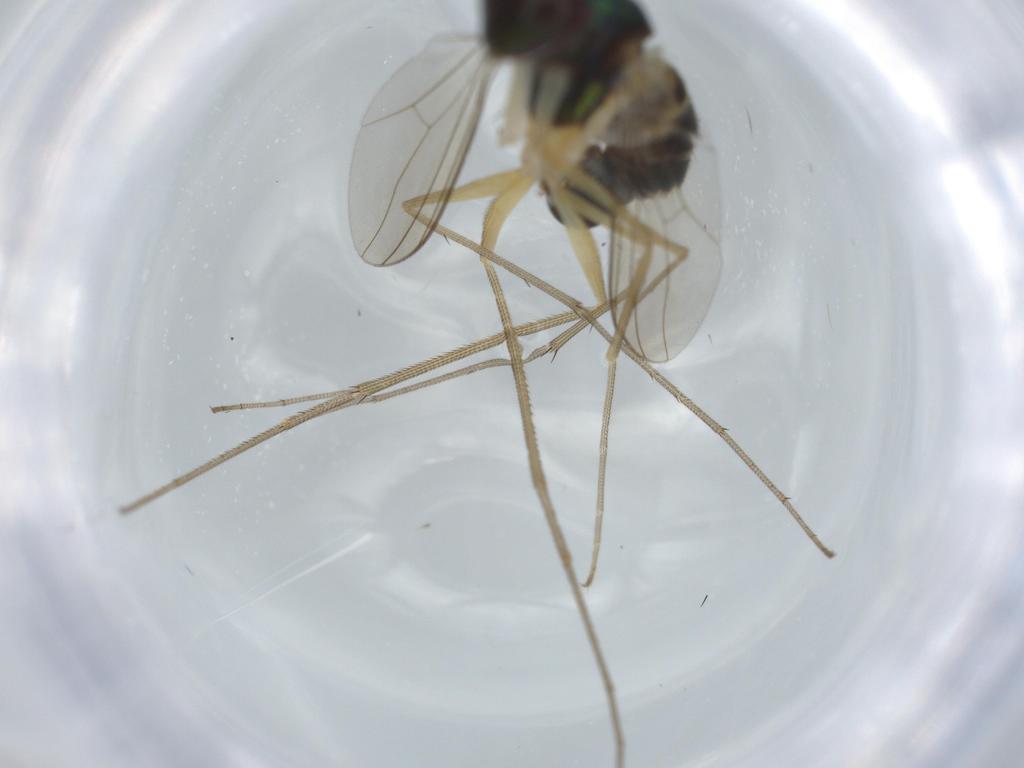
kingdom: Animalia
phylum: Arthropoda
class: Insecta
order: Diptera
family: Dolichopodidae
